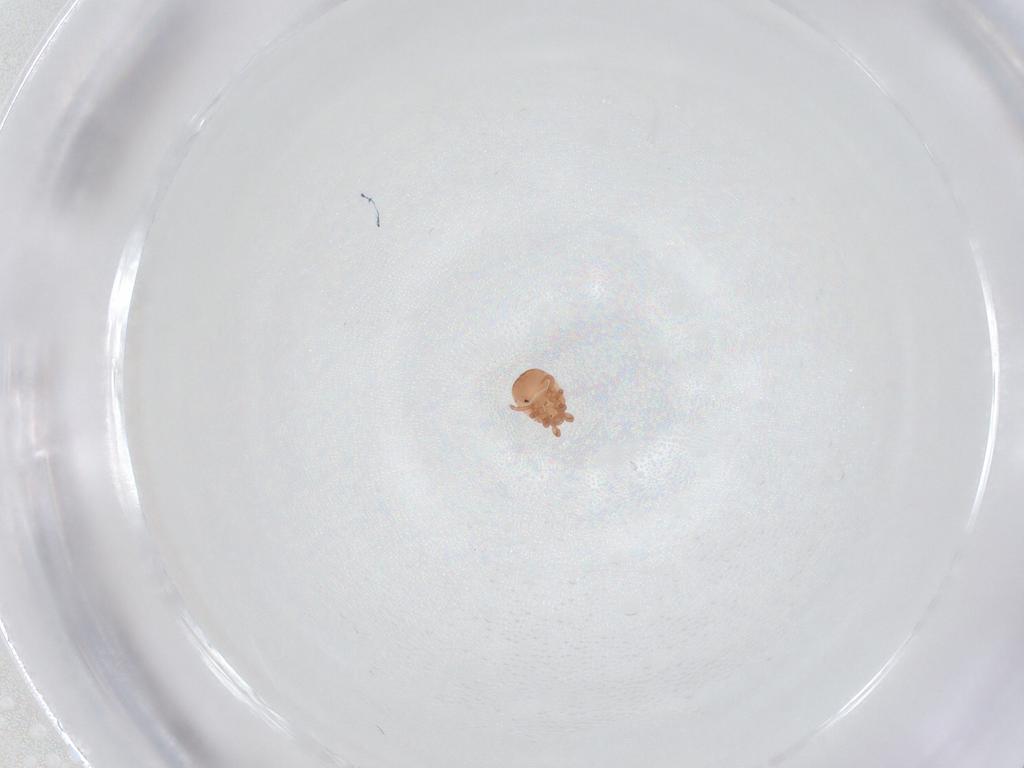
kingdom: Animalia
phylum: Arthropoda
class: Arachnida
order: Mesostigmata
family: Zerconidae
